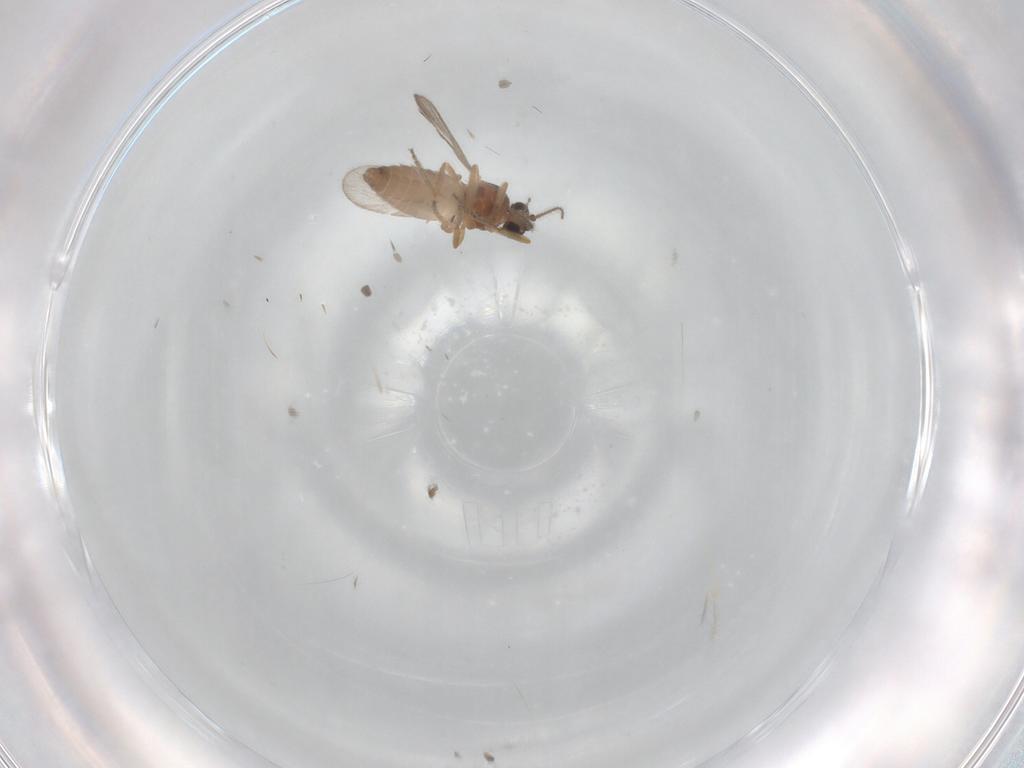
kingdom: Animalia
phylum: Arthropoda
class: Insecta
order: Diptera
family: Ceratopogonidae
